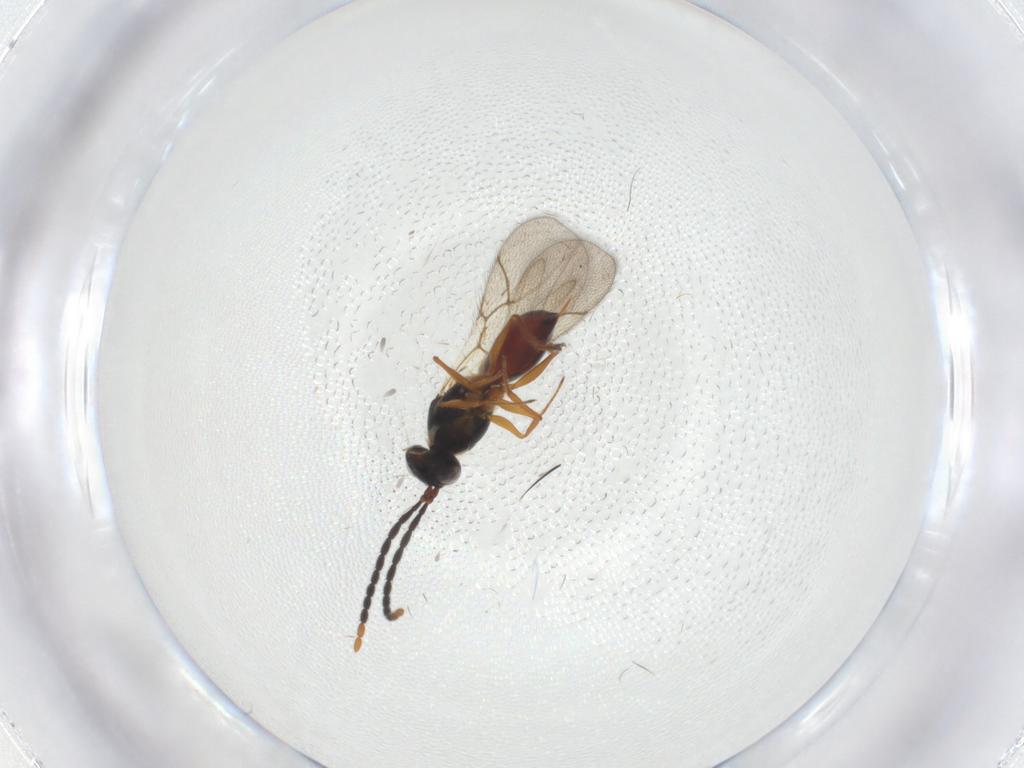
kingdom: Animalia
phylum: Arthropoda
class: Insecta
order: Hymenoptera
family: Figitidae
